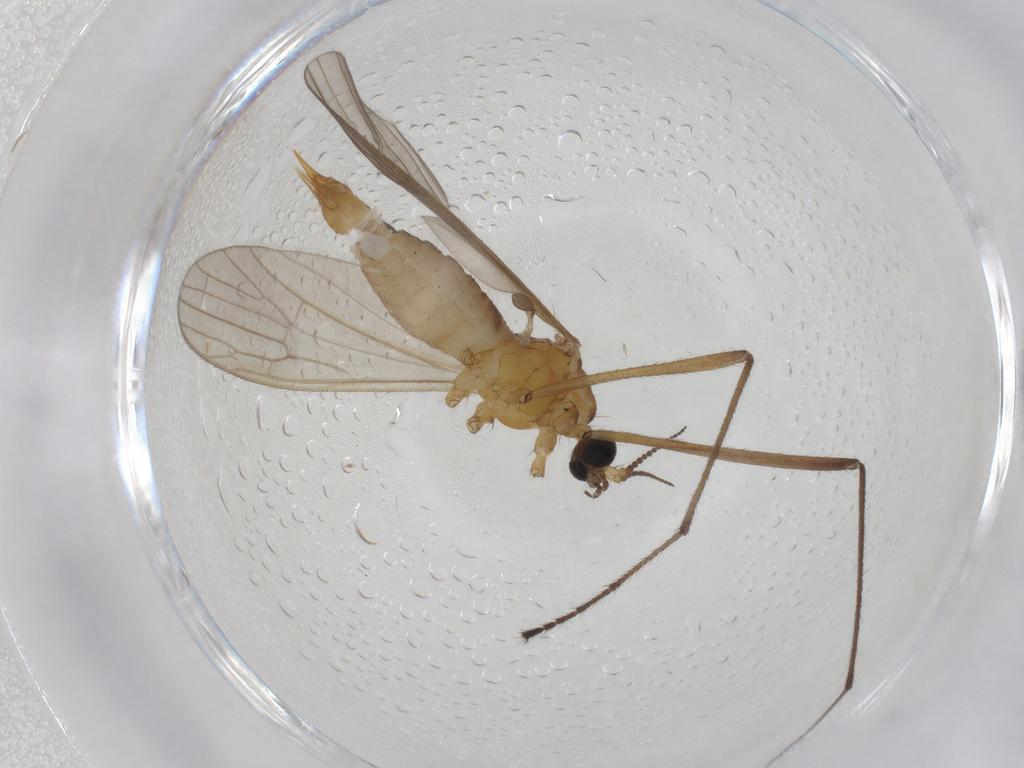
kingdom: Animalia
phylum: Arthropoda
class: Insecta
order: Diptera
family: Limoniidae
